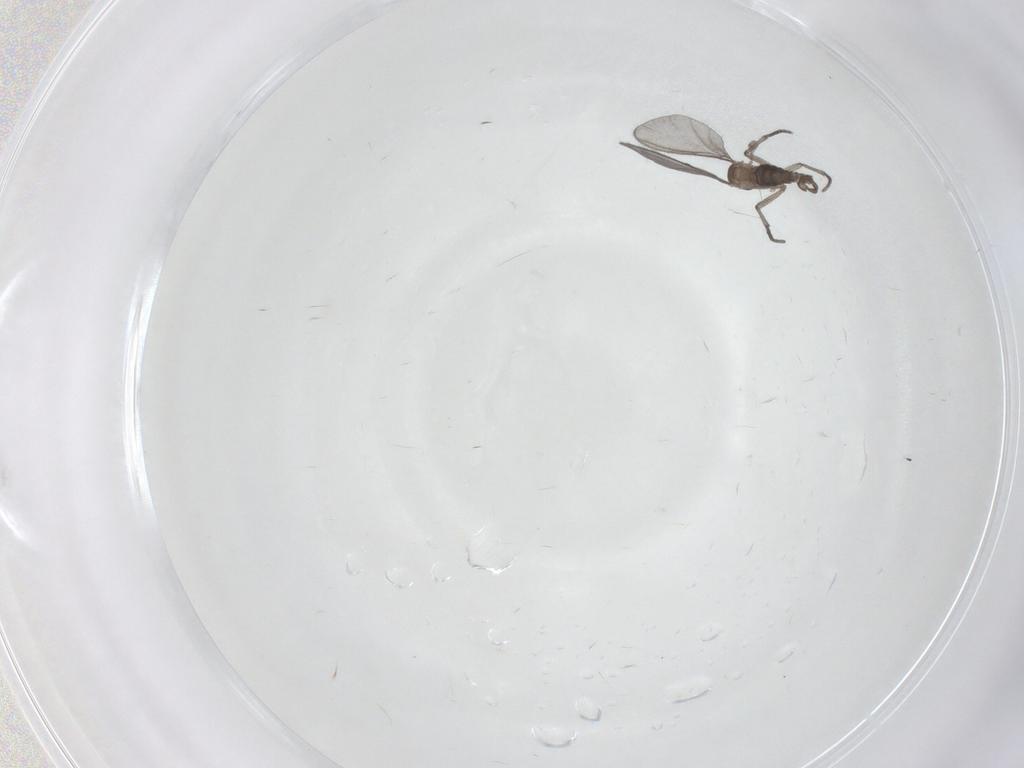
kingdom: Animalia
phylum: Arthropoda
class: Insecta
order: Diptera
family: Sciaridae
